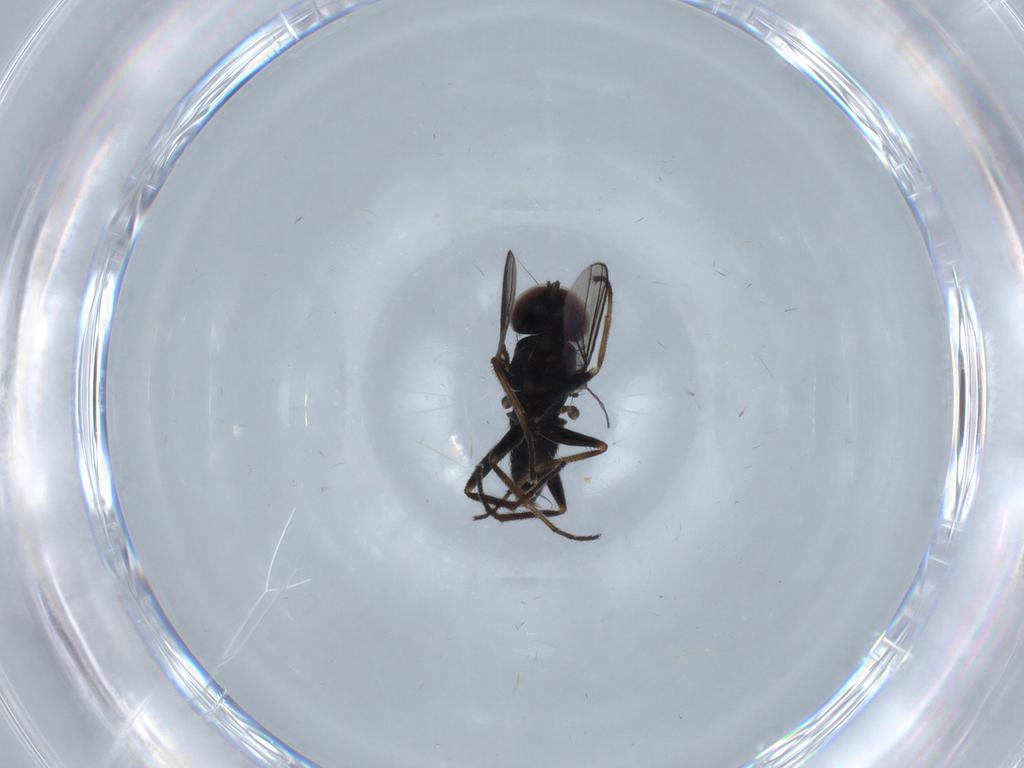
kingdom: Animalia
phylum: Arthropoda
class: Insecta
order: Diptera
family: Dolichopodidae
